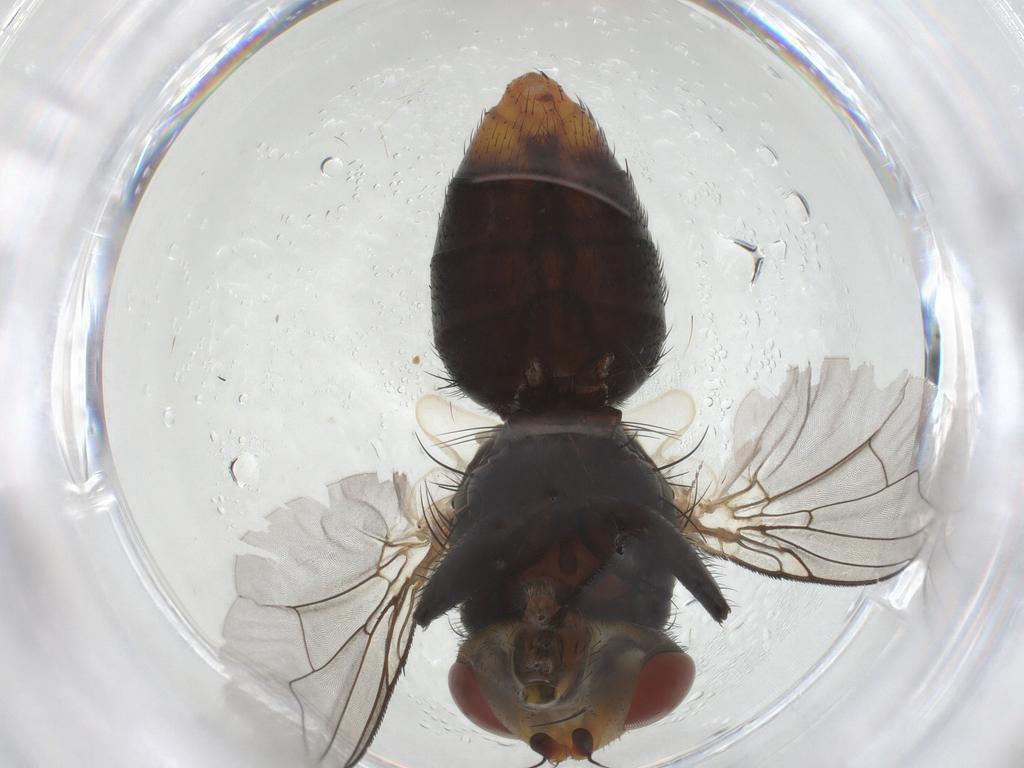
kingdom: Animalia
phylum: Arthropoda
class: Insecta
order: Diptera
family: Sarcophagidae
